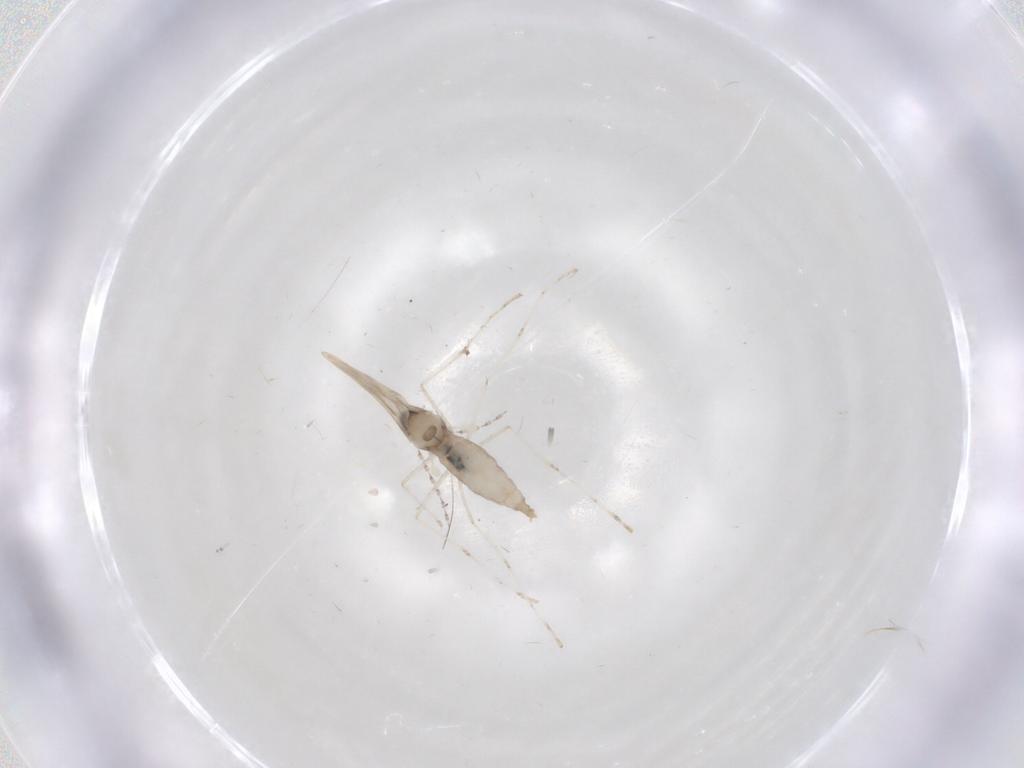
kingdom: Animalia
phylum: Arthropoda
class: Insecta
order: Diptera
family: Cecidomyiidae
